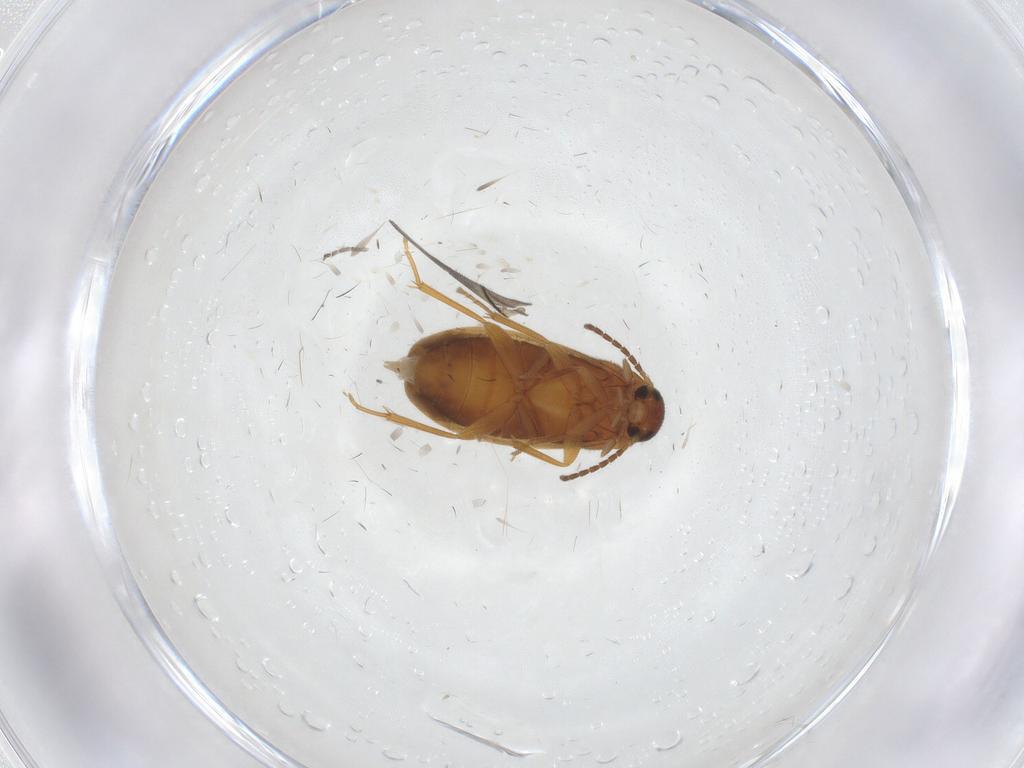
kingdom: Animalia
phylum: Arthropoda
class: Insecta
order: Coleoptera
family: Scraptiidae
